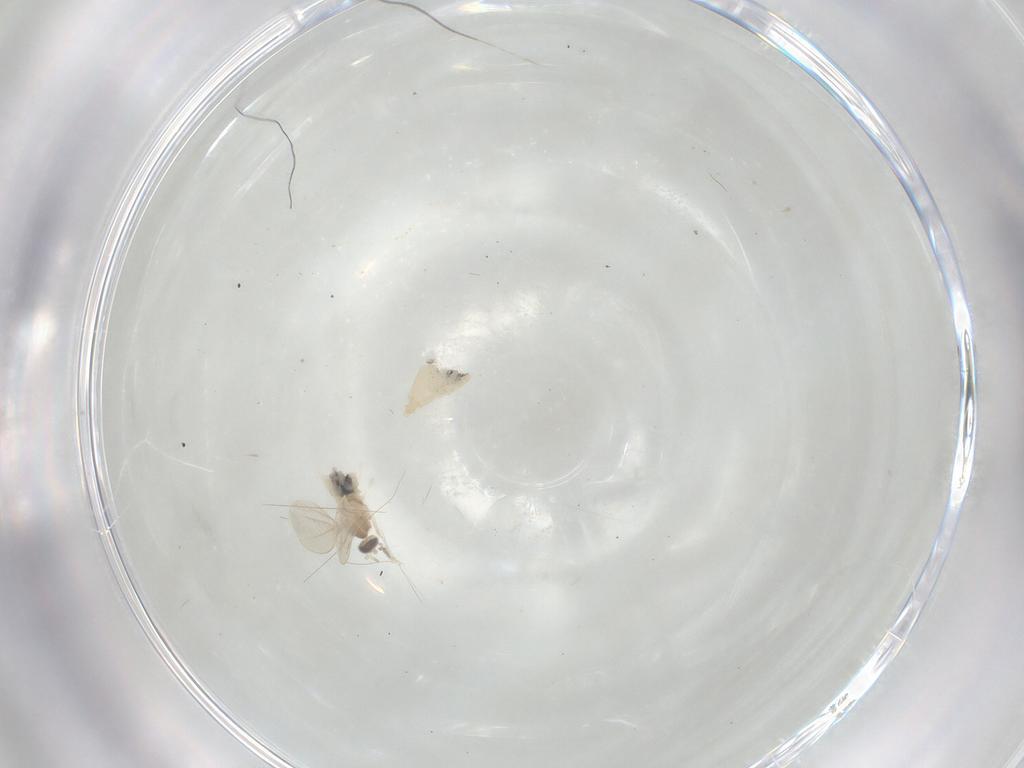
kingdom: Animalia
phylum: Arthropoda
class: Insecta
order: Diptera
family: Cecidomyiidae
